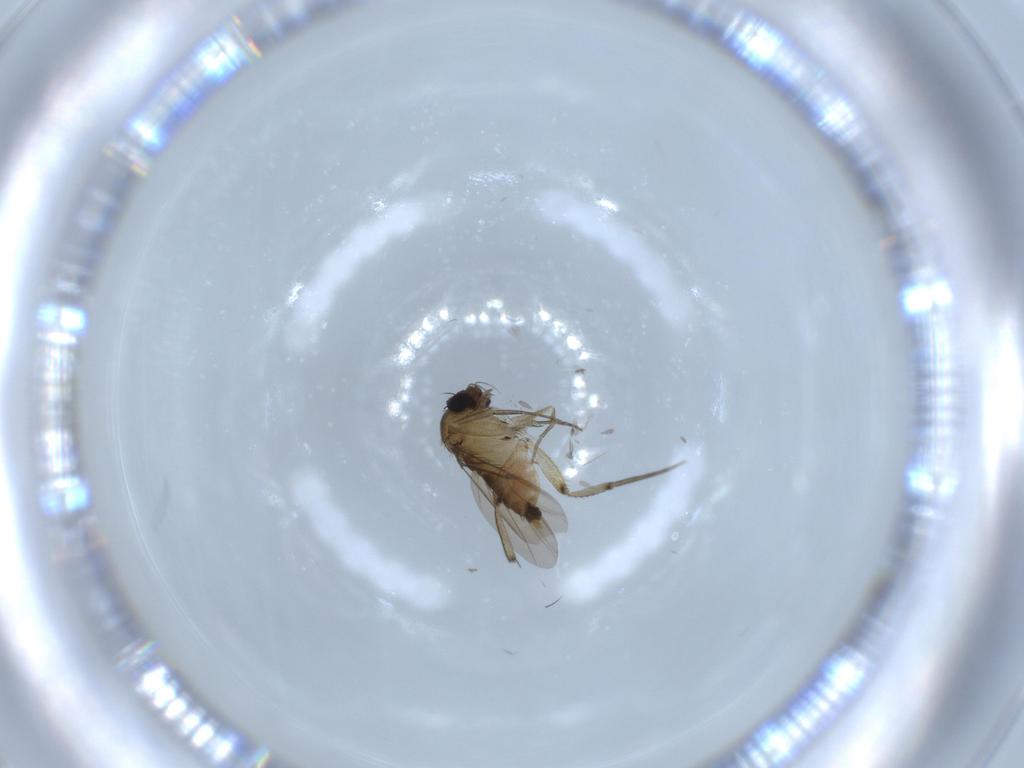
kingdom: Animalia
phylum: Arthropoda
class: Insecta
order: Diptera
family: Phoridae
